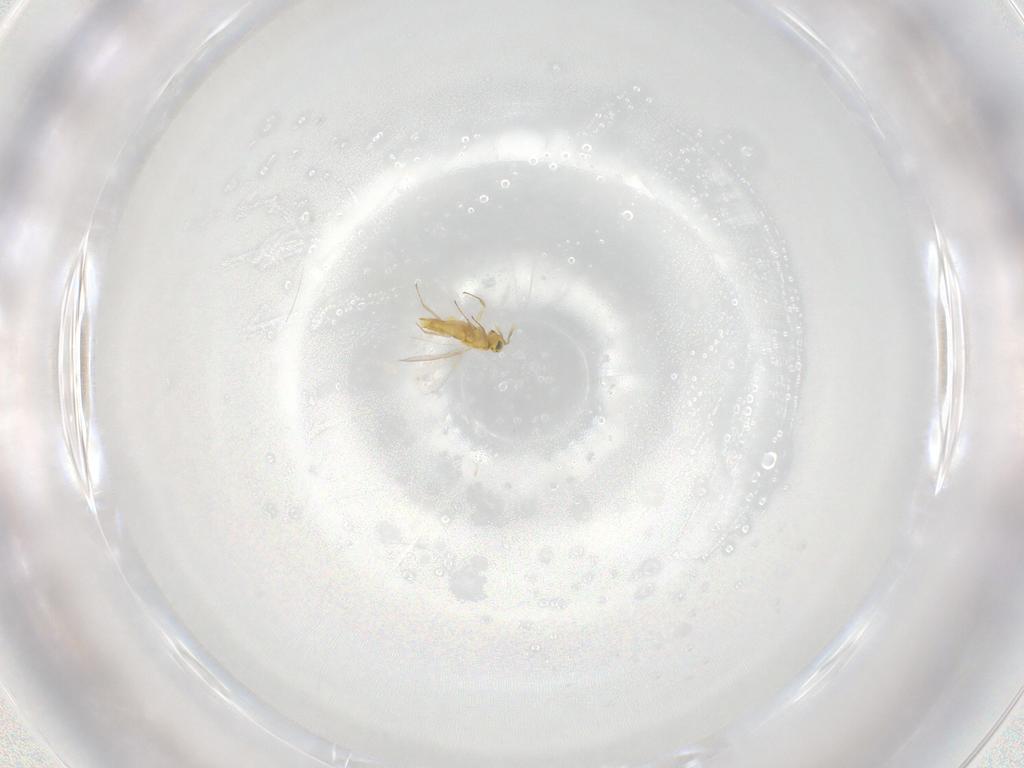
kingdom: Animalia
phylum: Arthropoda
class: Insecta
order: Hymenoptera
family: Aphelinidae
